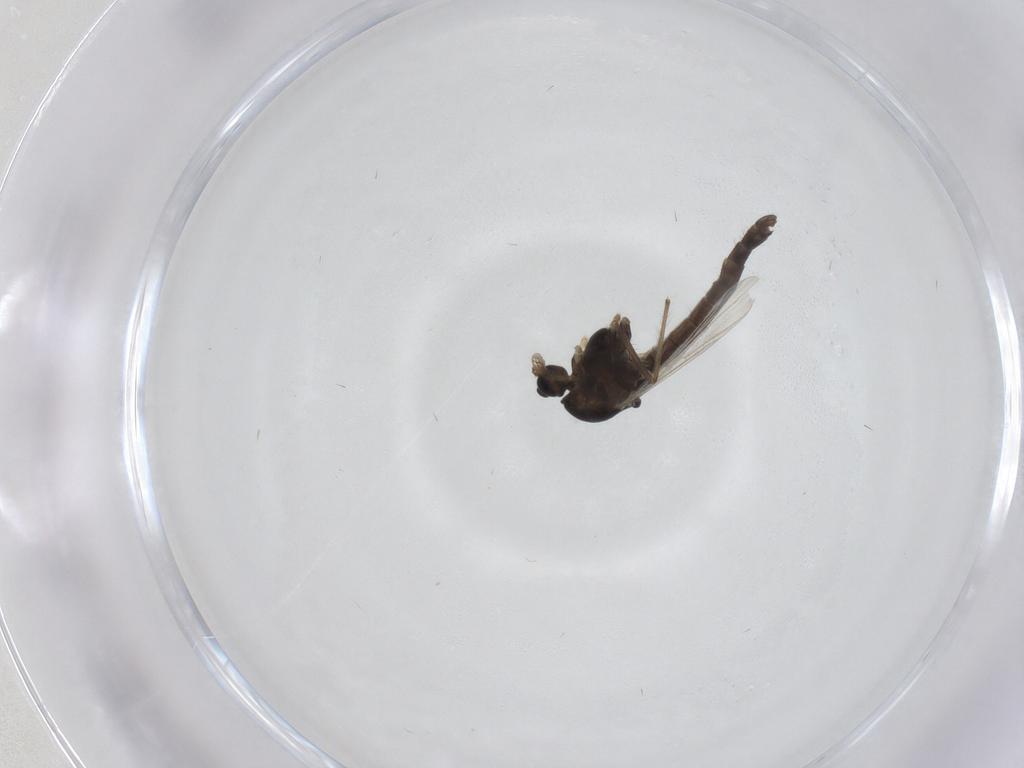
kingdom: Animalia
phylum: Arthropoda
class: Insecta
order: Diptera
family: Chironomidae
